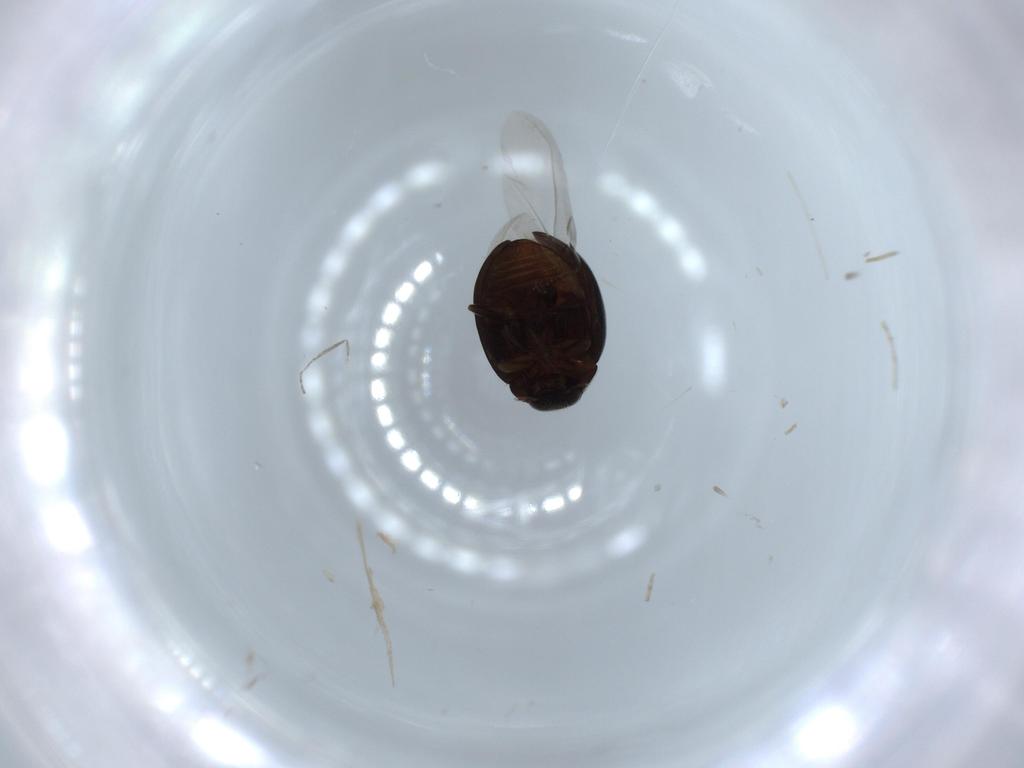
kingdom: Animalia
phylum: Arthropoda
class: Insecta
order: Coleoptera
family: Coccinellidae
